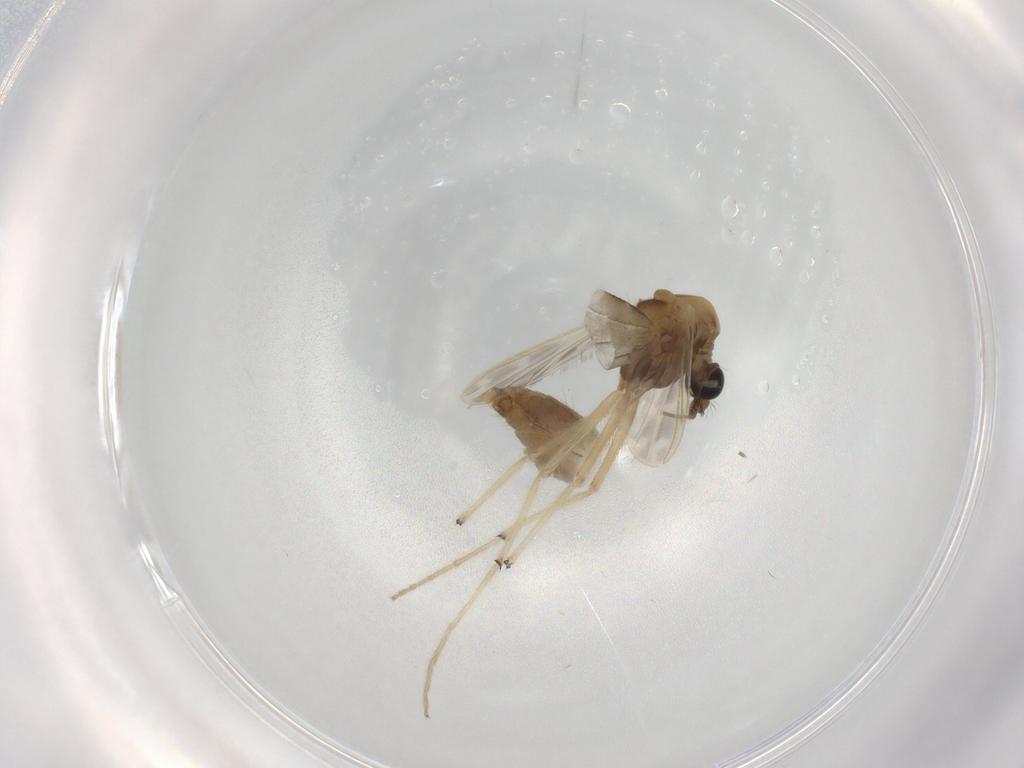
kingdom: Animalia
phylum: Arthropoda
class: Insecta
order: Diptera
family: Chironomidae
